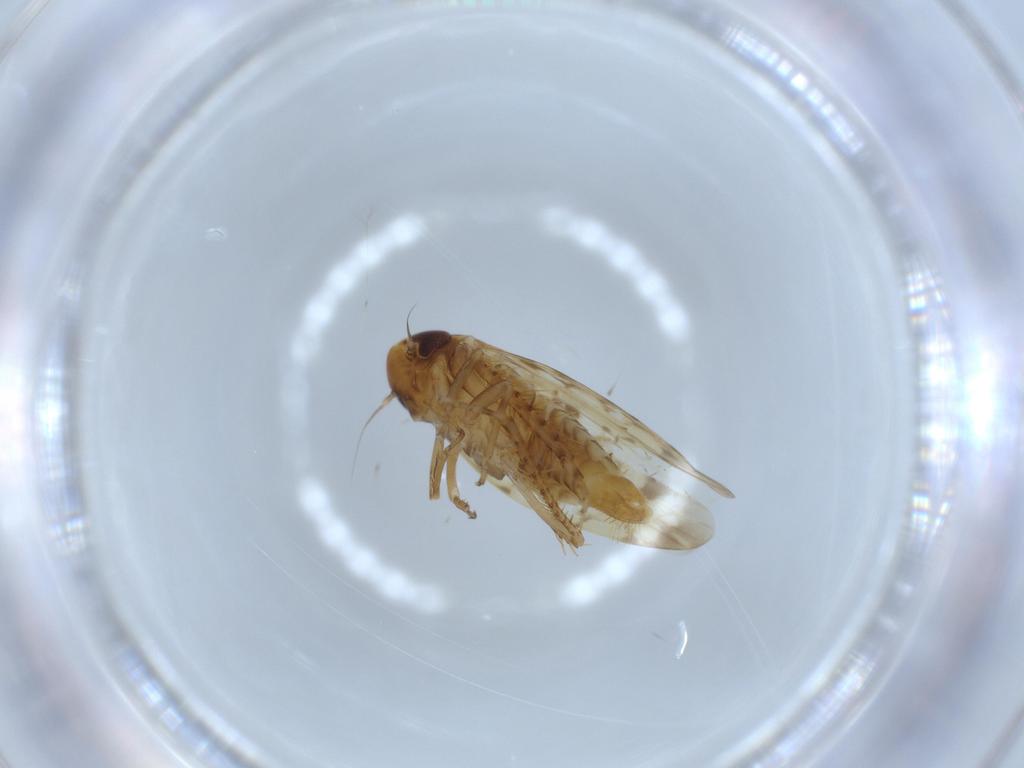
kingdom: Animalia
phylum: Arthropoda
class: Insecta
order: Hemiptera
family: Cicadellidae
